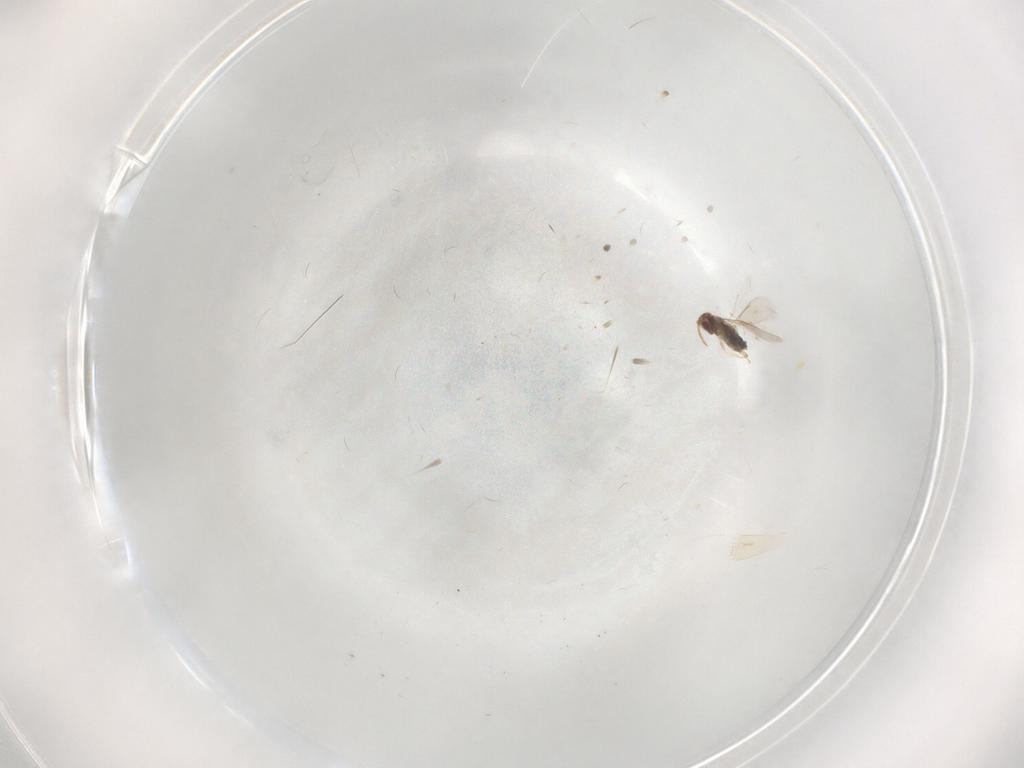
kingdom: Animalia
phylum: Arthropoda
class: Insecta
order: Hymenoptera
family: Aphelinidae
